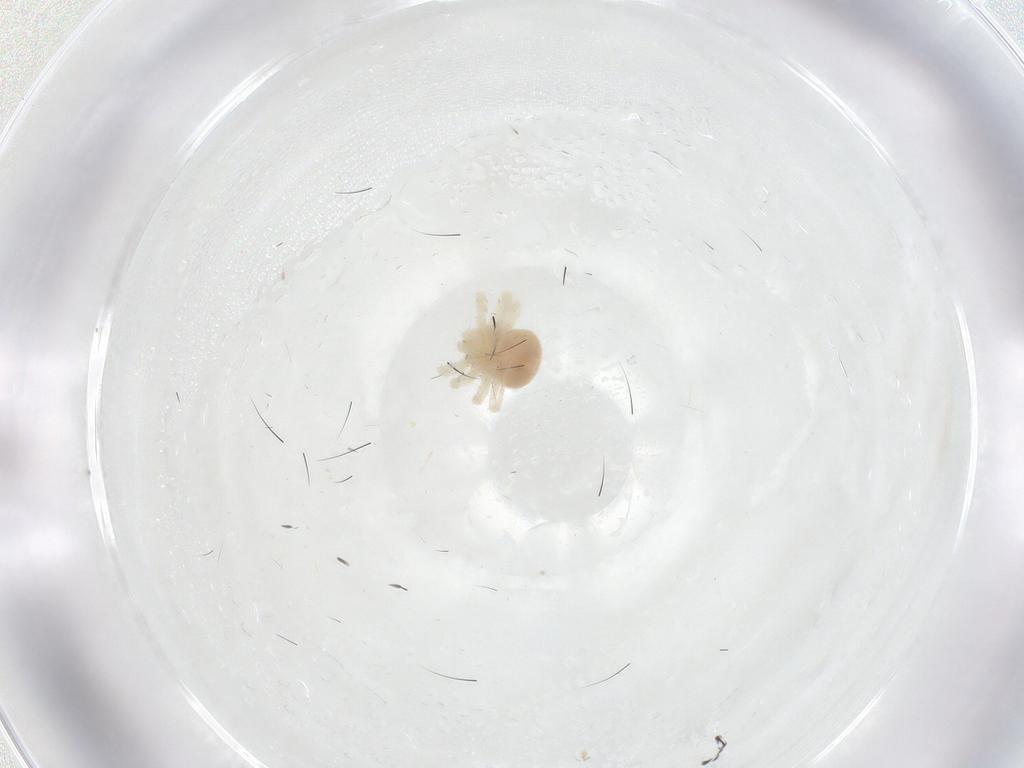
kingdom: Animalia
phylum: Arthropoda
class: Arachnida
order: Trombidiformes
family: Anystidae
